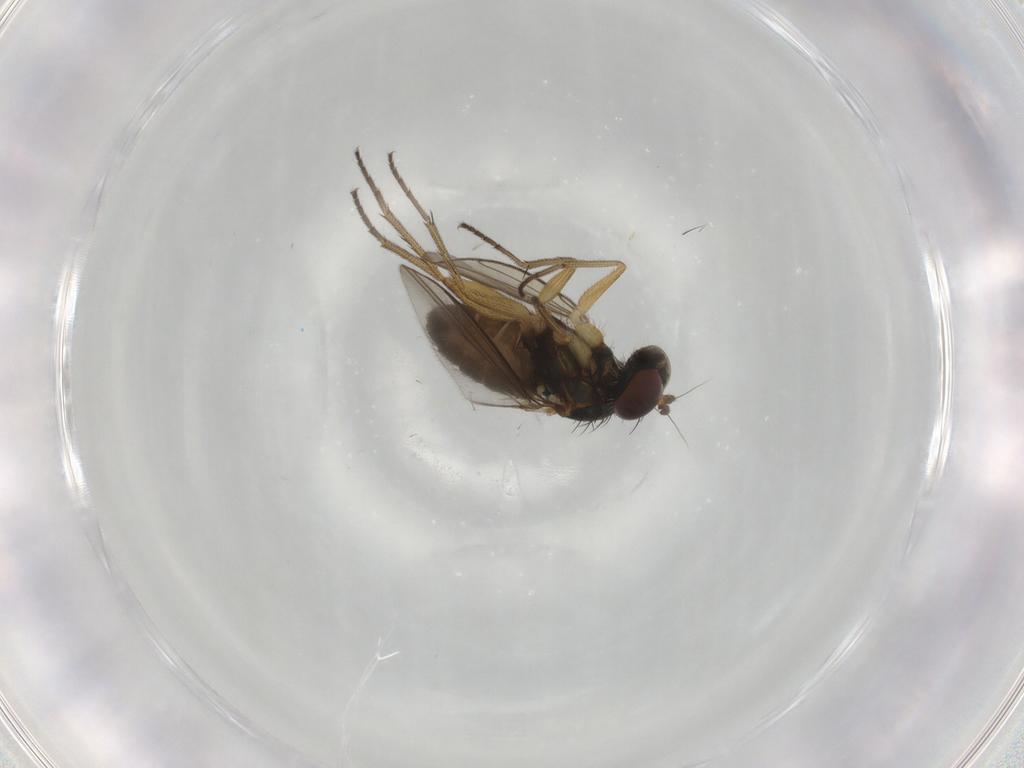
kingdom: Animalia
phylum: Arthropoda
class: Insecta
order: Diptera
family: Dolichopodidae
